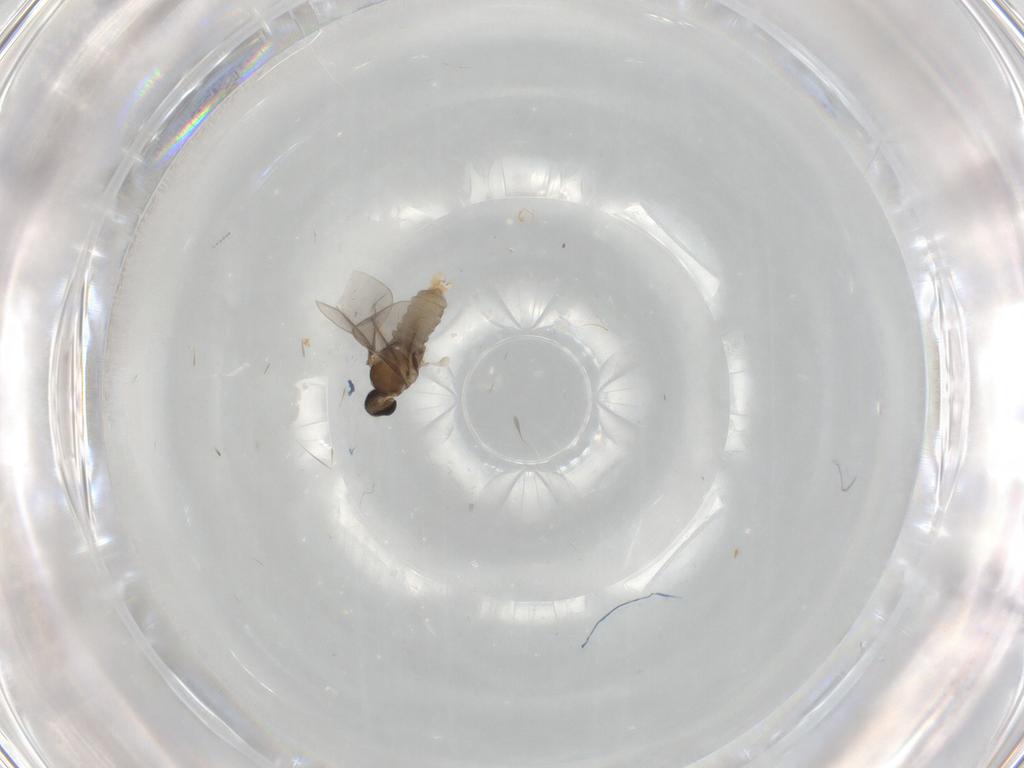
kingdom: Animalia
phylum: Arthropoda
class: Insecta
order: Diptera
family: Cecidomyiidae
